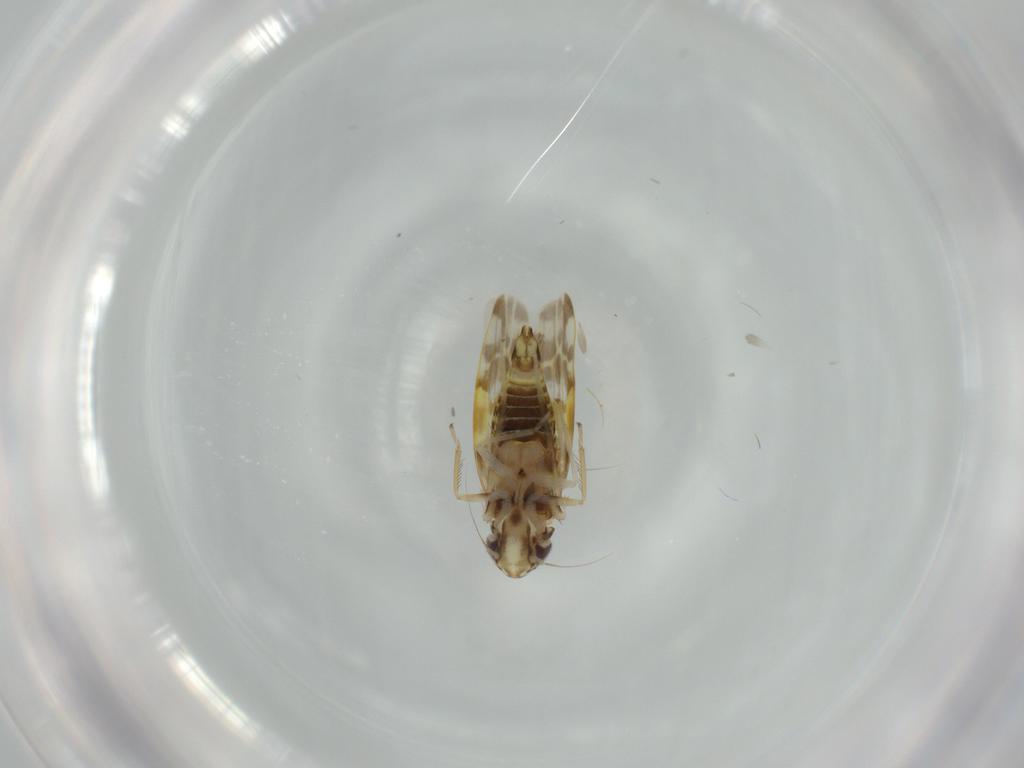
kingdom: Animalia
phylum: Arthropoda
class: Insecta
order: Hemiptera
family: Cicadellidae
